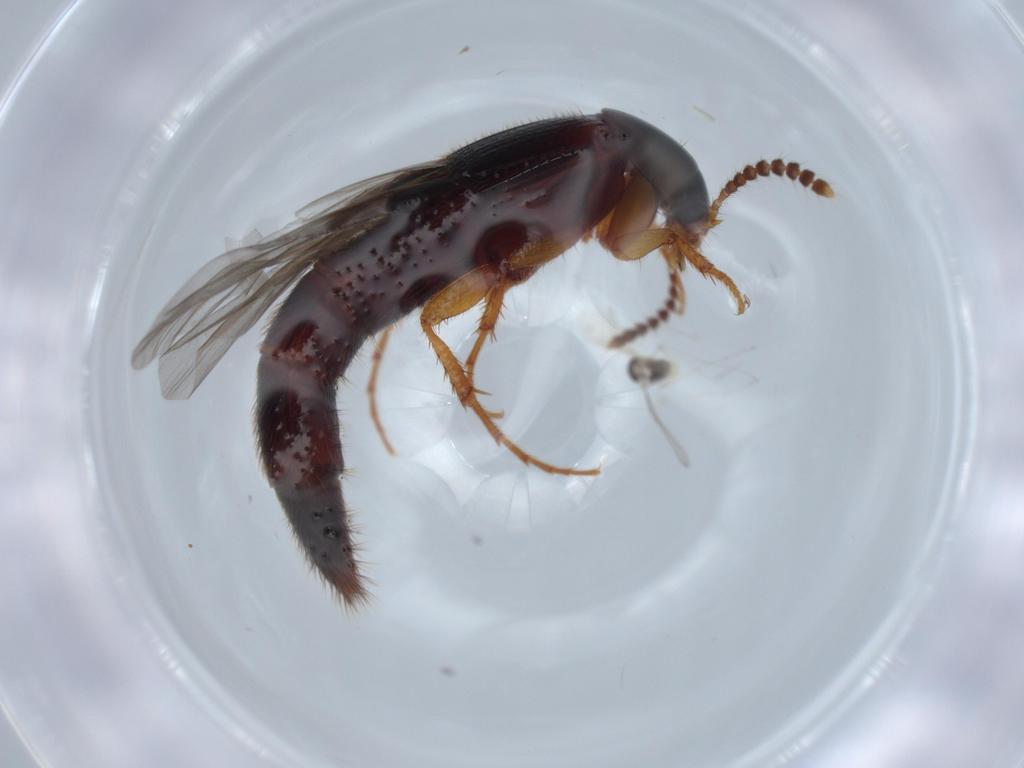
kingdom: Animalia
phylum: Arthropoda
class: Insecta
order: Coleoptera
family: Staphylinidae
